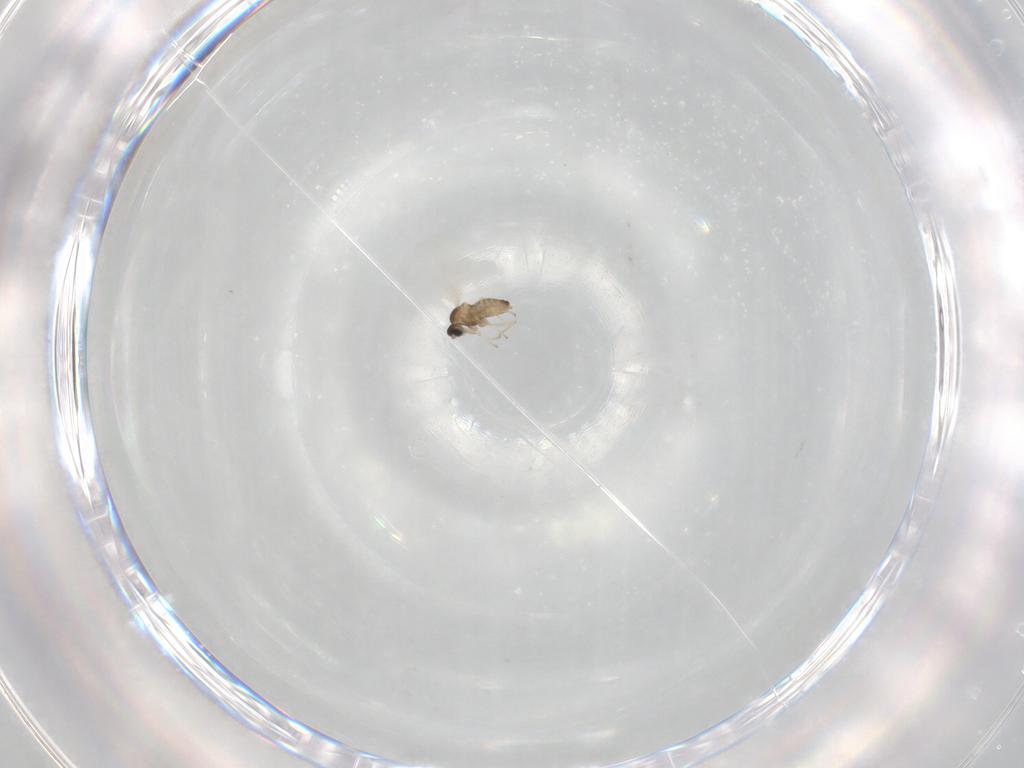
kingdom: Animalia
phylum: Arthropoda
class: Insecta
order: Diptera
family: Cecidomyiidae
